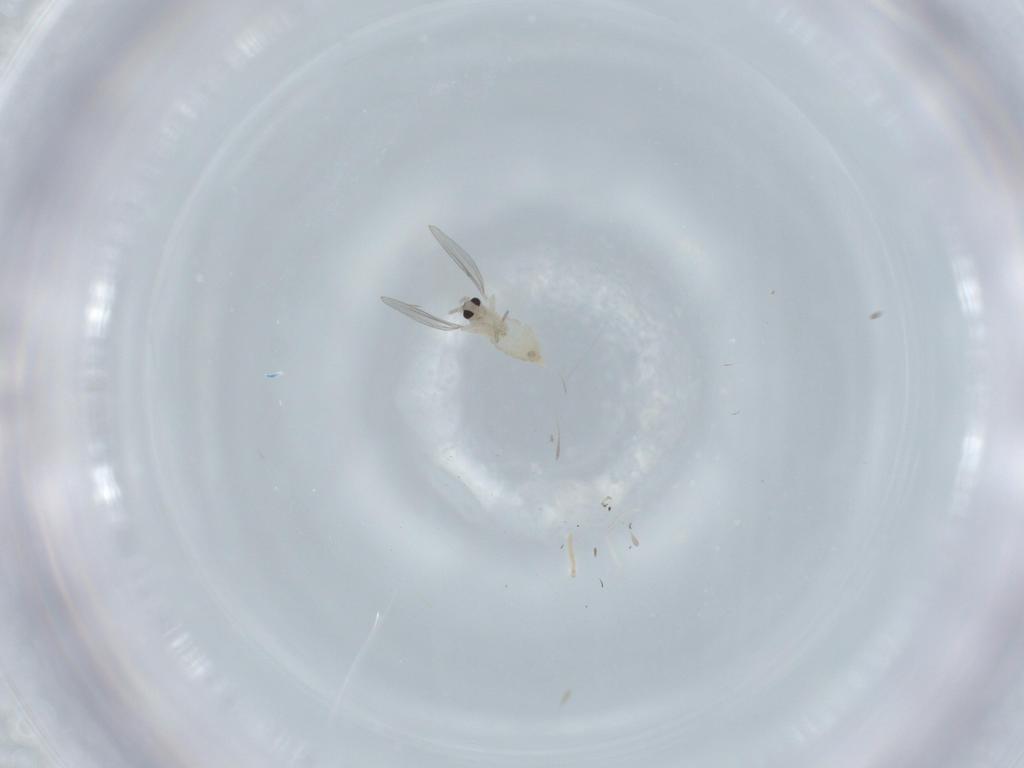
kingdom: Animalia
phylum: Arthropoda
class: Insecta
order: Diptera
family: Cecidomyiidae
